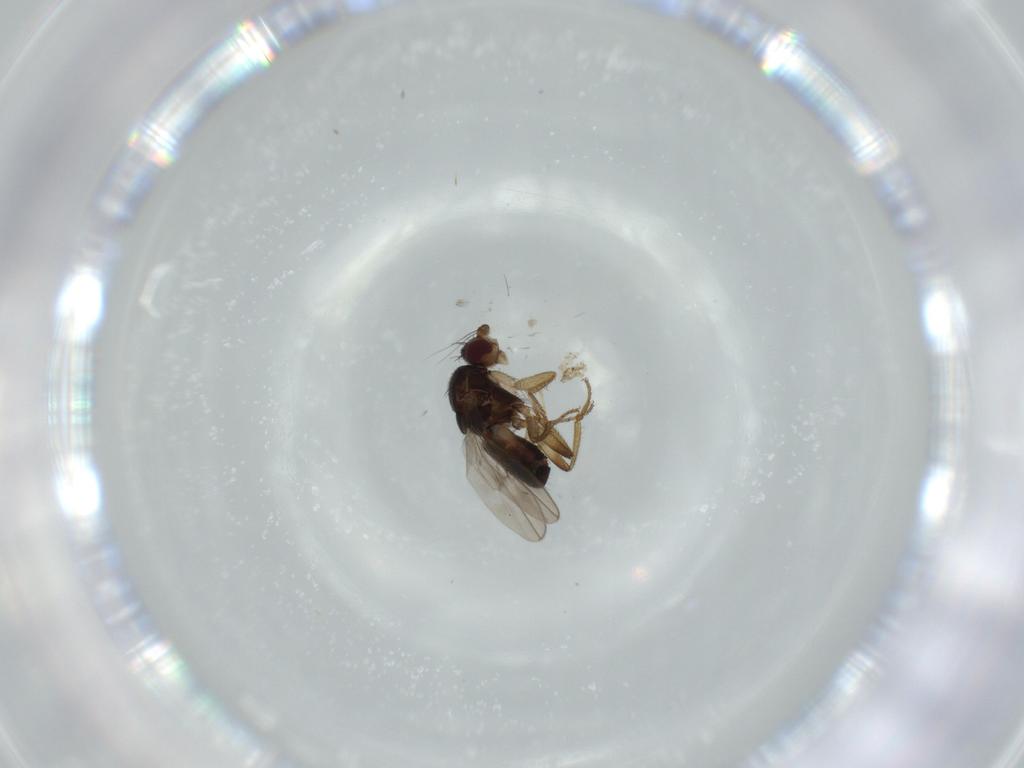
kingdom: Animalia
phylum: Arthropoda
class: Insecta
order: Diptera
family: Sphaeroceridae
